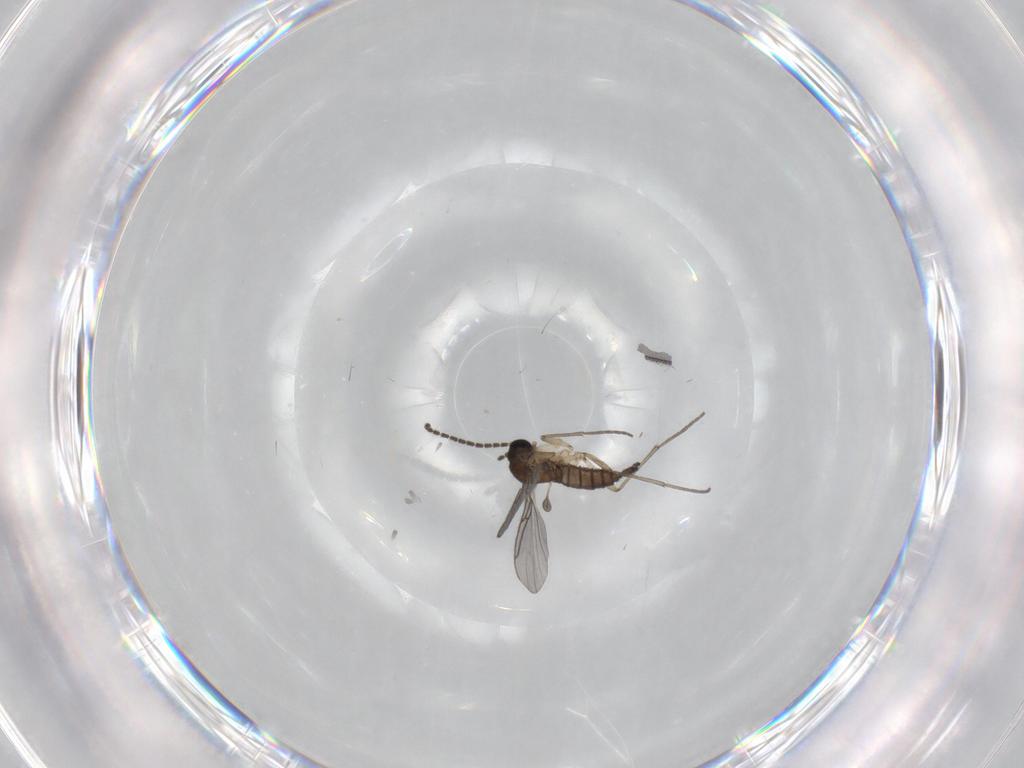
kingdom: Animalia
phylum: Arthropoda
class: Insecta
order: Diptera
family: Sciaridae
